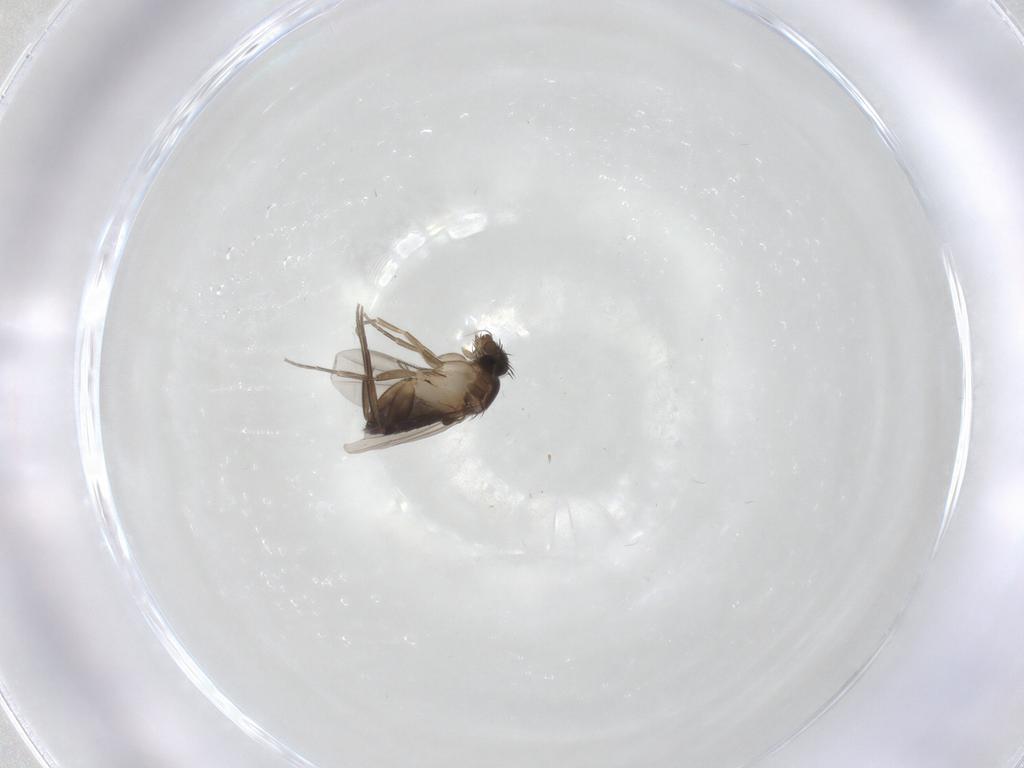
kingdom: Animalia
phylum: Arthropoda
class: Insecta
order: Diptera
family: Phoridae
